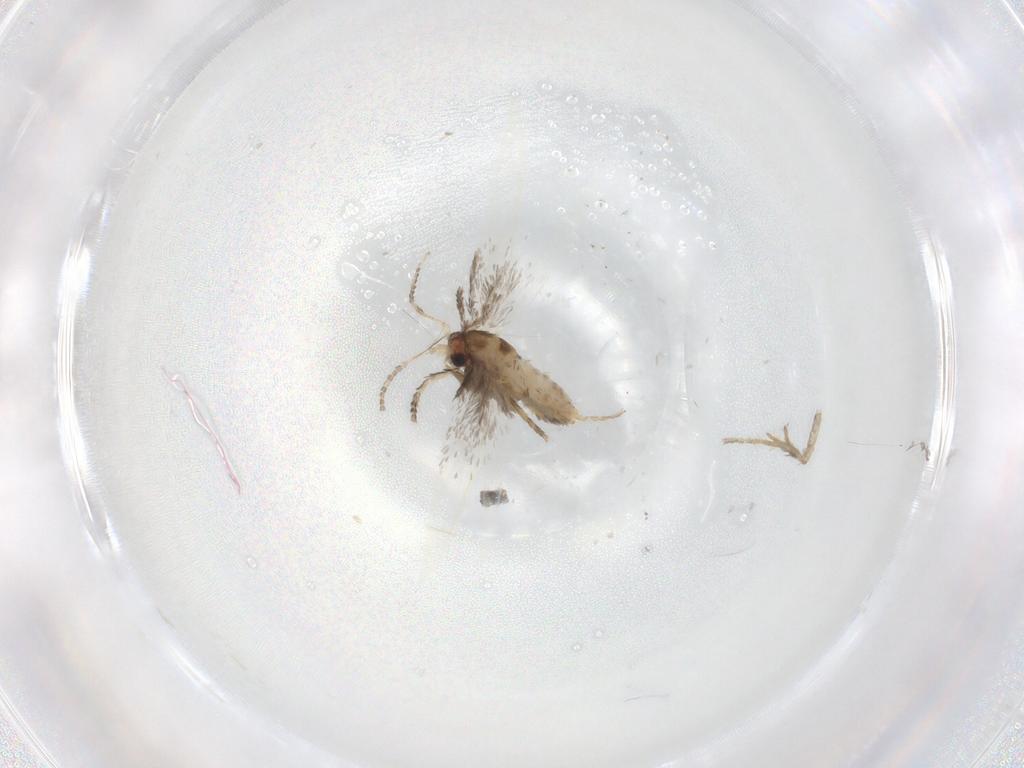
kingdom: Animalia
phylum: Arthropoda
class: Insecta
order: Lepidoptera
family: Nepticulidae
